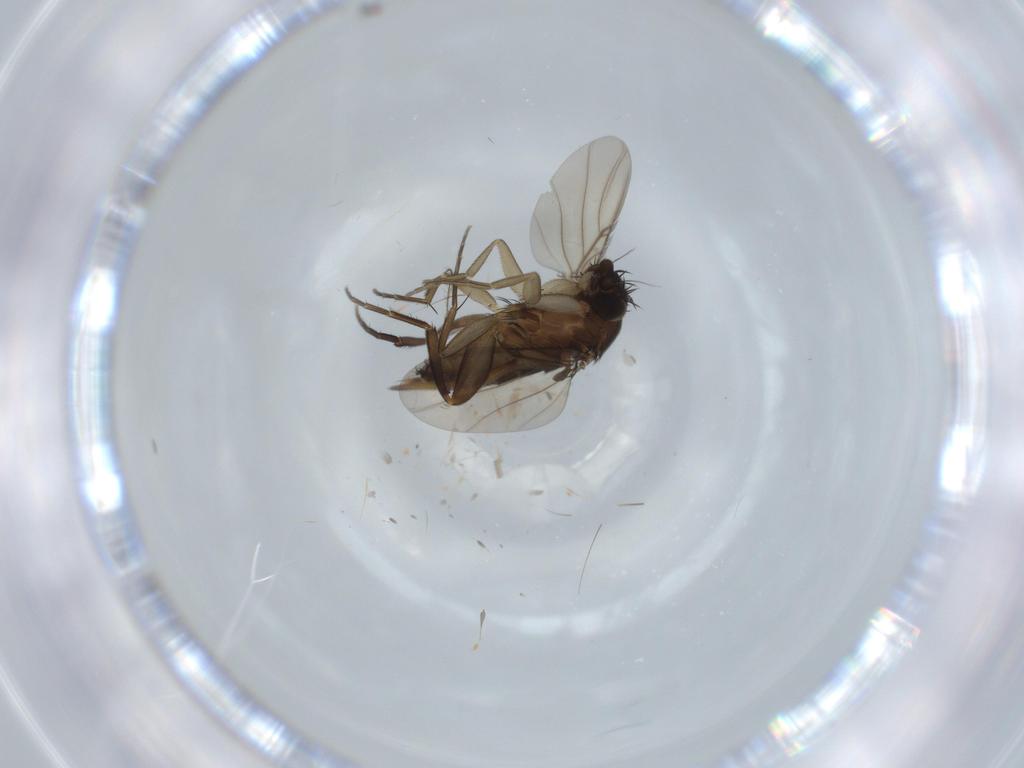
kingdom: Animalia
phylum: Arthropoda
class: Insecta
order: Diptera
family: Phoridae
